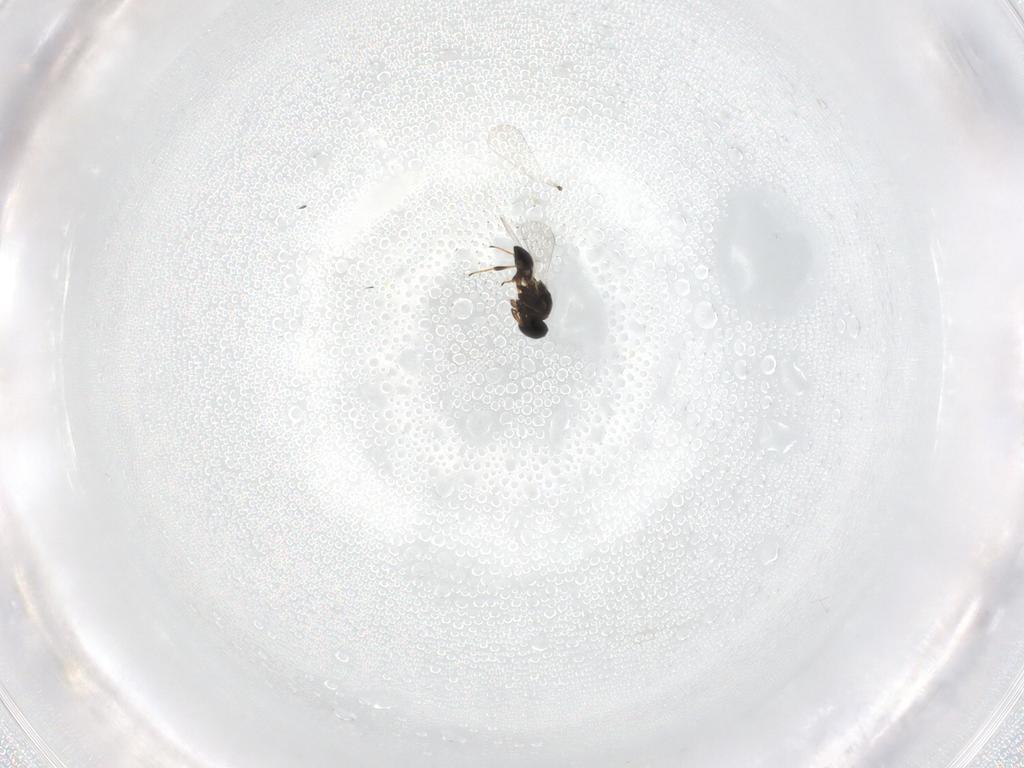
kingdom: Animalia
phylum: Arthropoda
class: Insecta
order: Hymenoptera
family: Platygastridae
